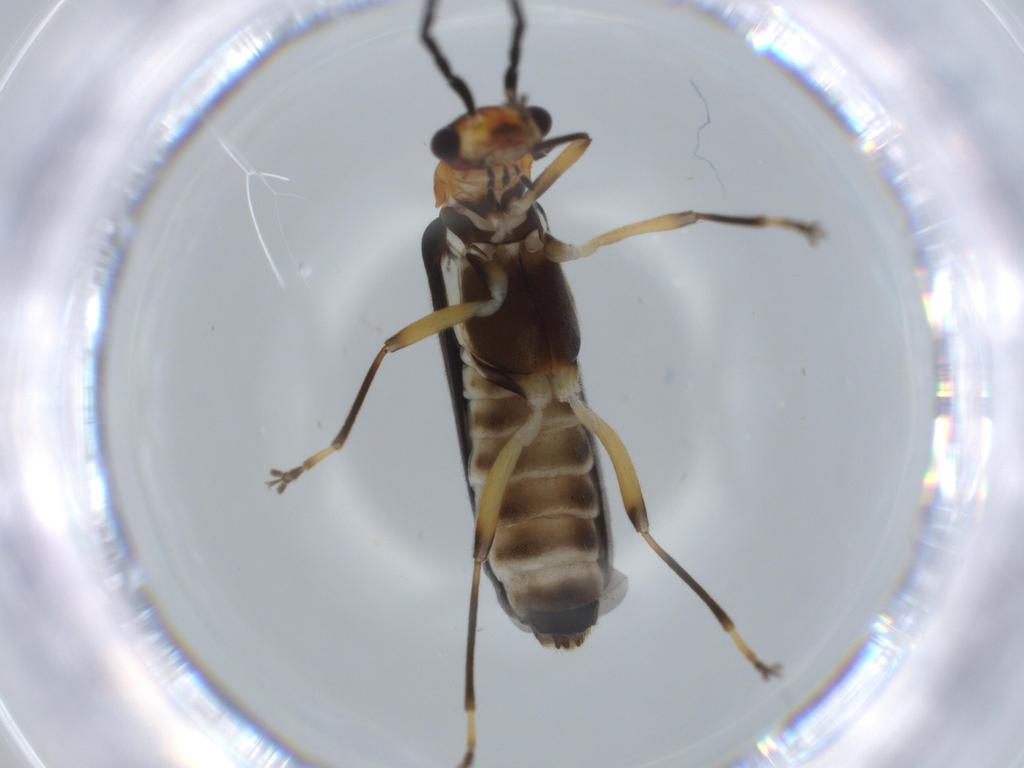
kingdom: Animalia
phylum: Arthropoda
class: Insecta
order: Coleoptera
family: Cantharidae
